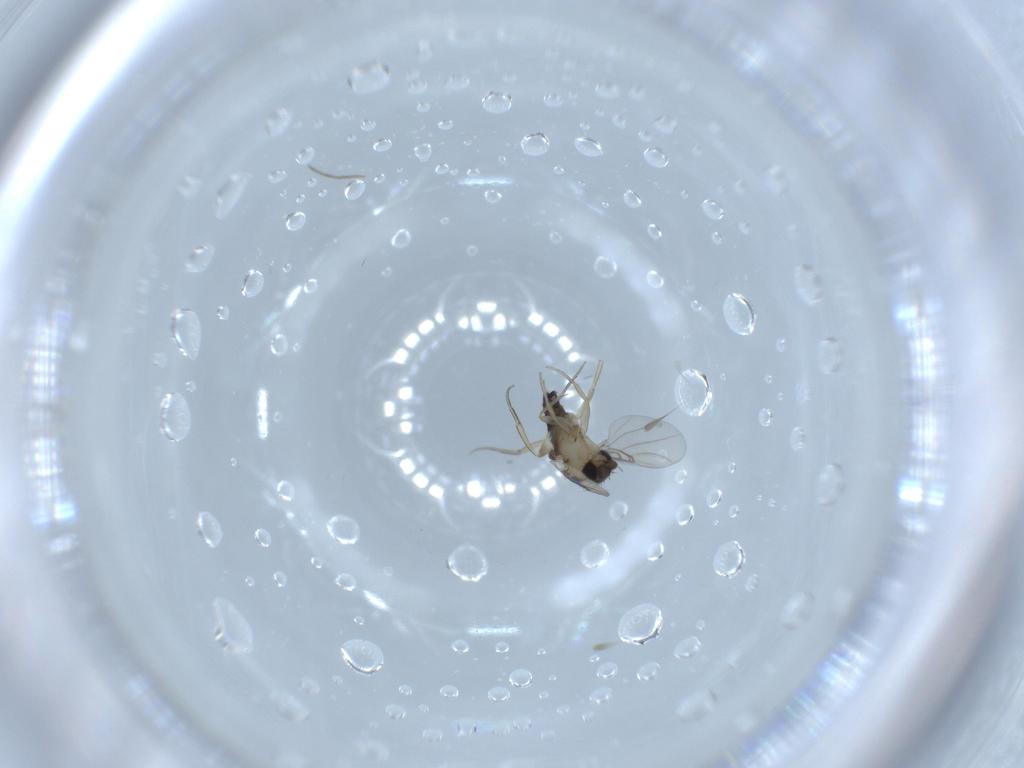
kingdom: Animalia
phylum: Arthropoda
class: Insecta
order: Diptera
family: Phoridae
